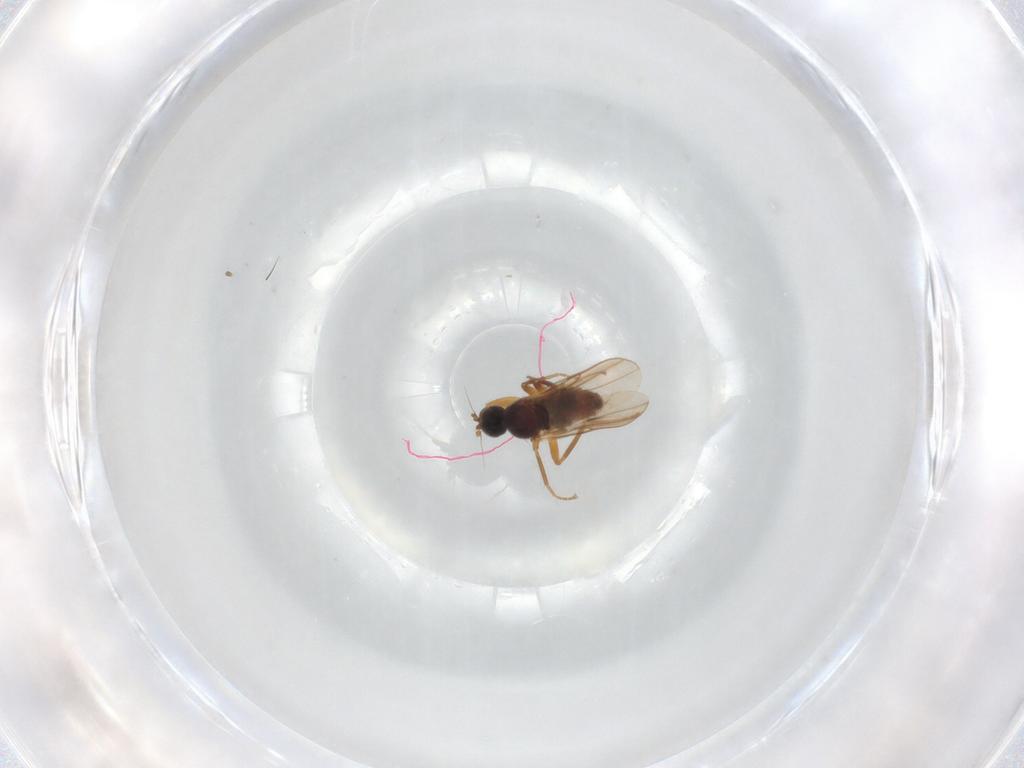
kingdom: Animalia
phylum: Arthropoda
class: Insecta
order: Diptera
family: Hybotidae
